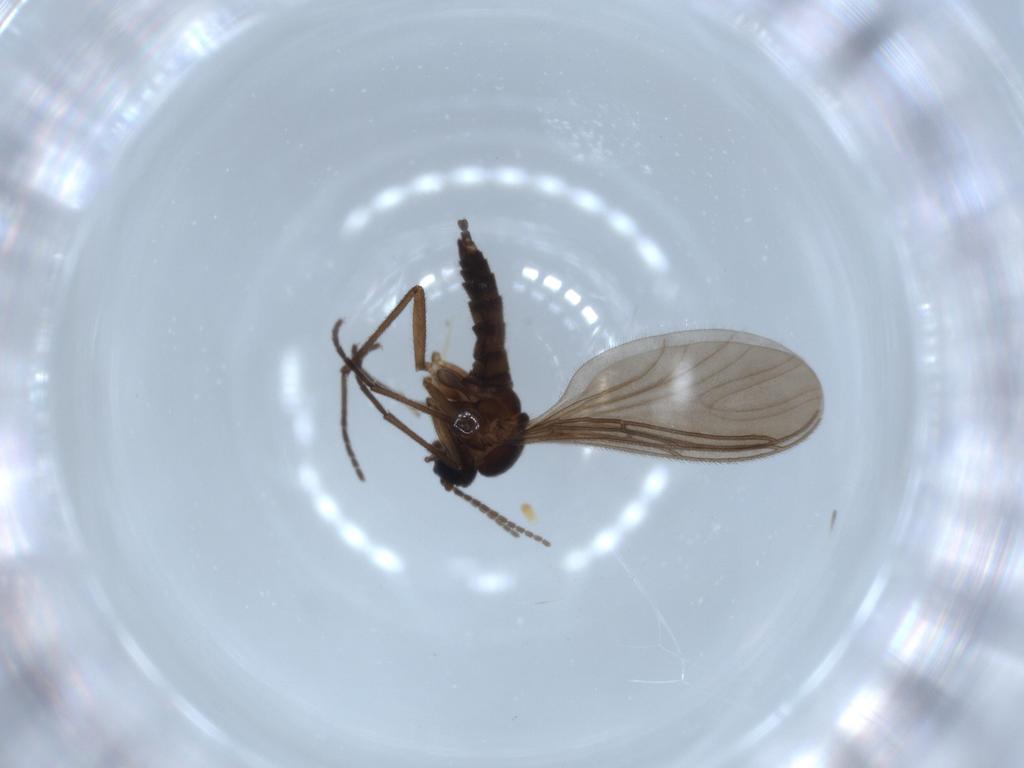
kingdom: Animalia
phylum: Arthropoda
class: Insecta
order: Diptera
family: Sciaridae
